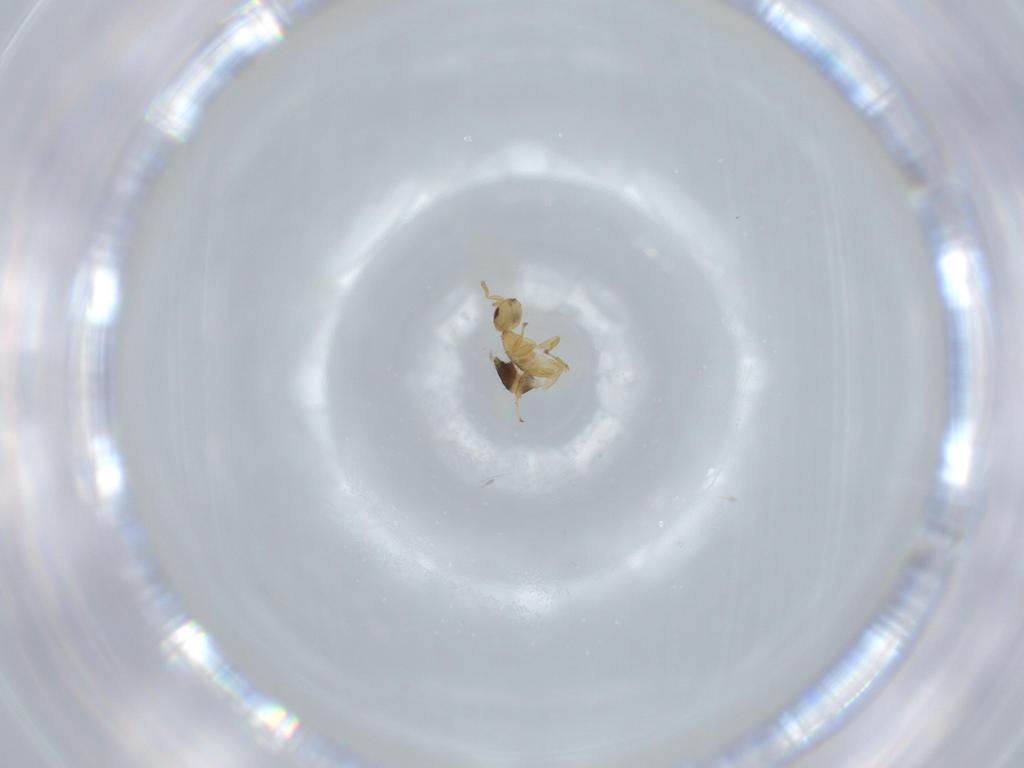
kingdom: Animalia
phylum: Arthropoda
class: Insecta
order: Hymenoptera
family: Torymidae
